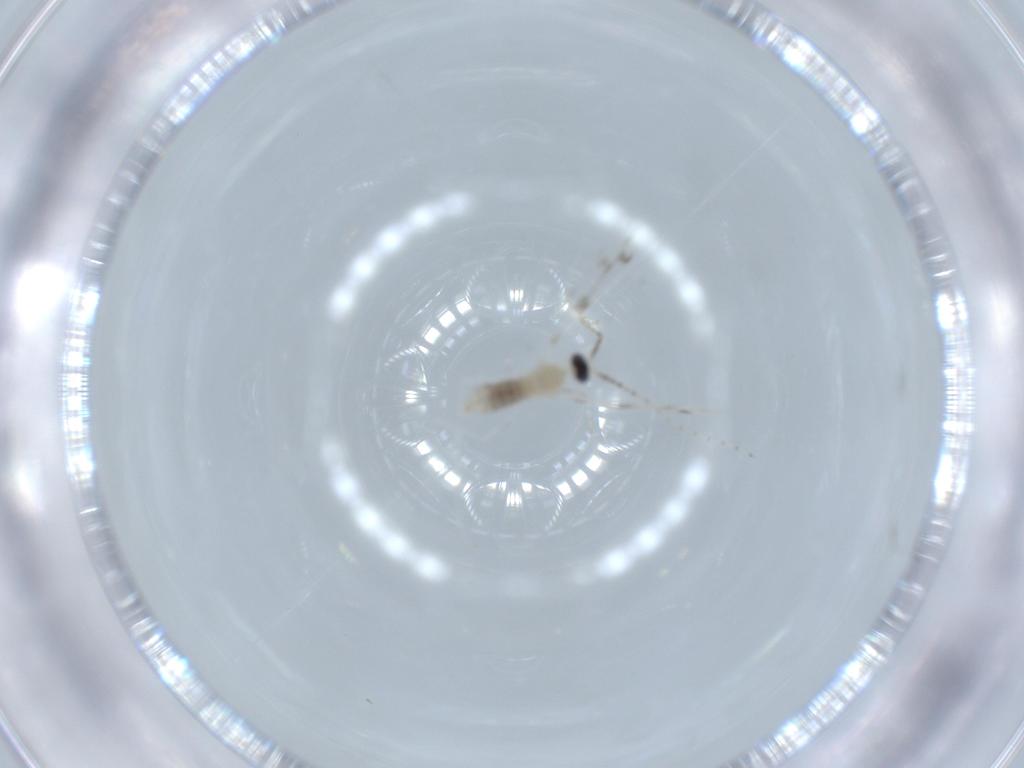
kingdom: Animalia
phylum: Arthropoda
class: Insecta
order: Diptera
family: Cecidomyiidae
